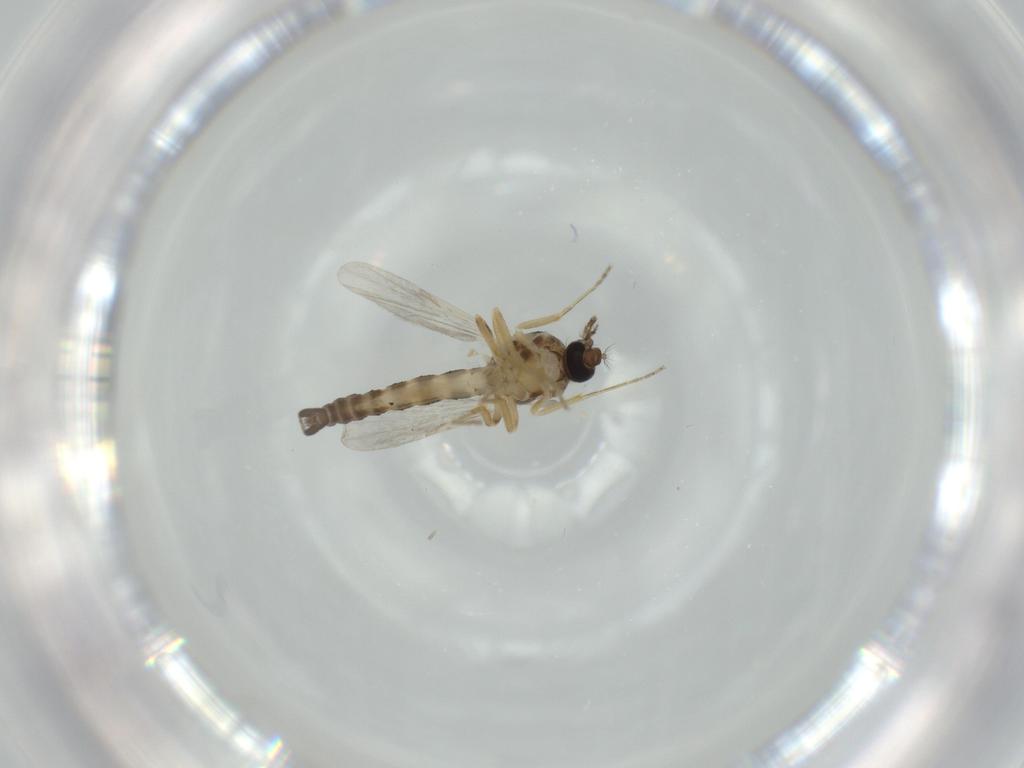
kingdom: Animalia
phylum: Arthropoda
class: Insecta
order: Diptera
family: Ceratopogonidae
